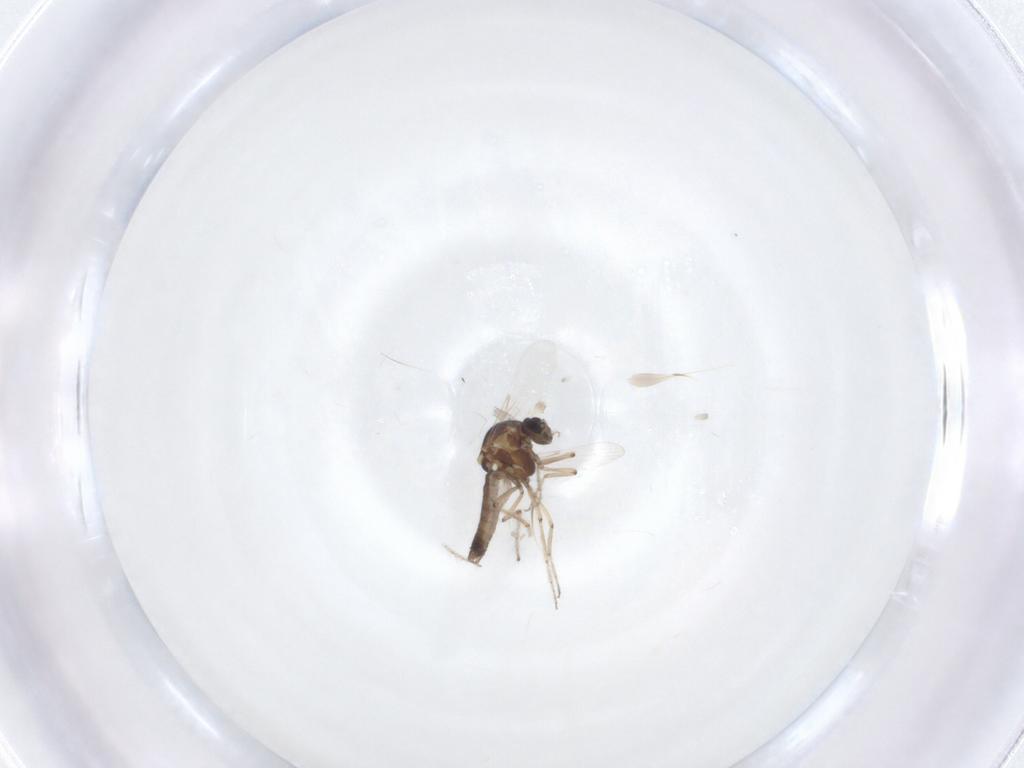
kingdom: Animalia
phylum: Arthropoda
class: Insecta
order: Diptera
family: Ceratopogonidae
